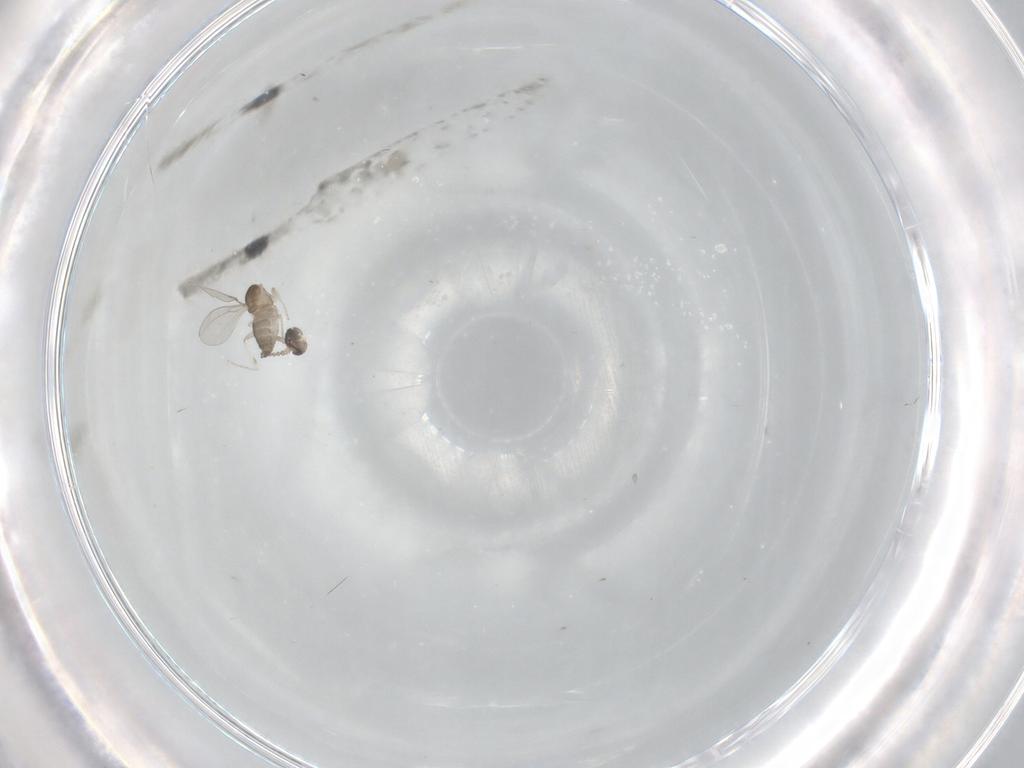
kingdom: Animalia
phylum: Arthropoda
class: Insecta
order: Diptera
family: Cecidomyiidae
